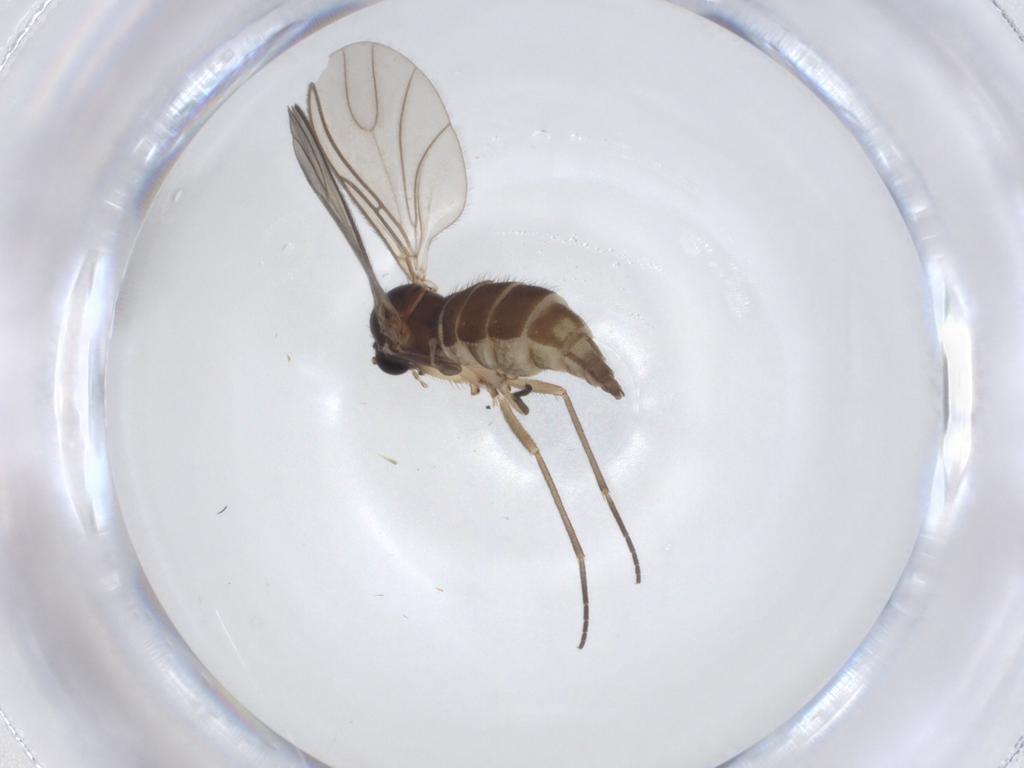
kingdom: Animalia
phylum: Arthropoda
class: Insecta
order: Diptera
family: Sciaridae
